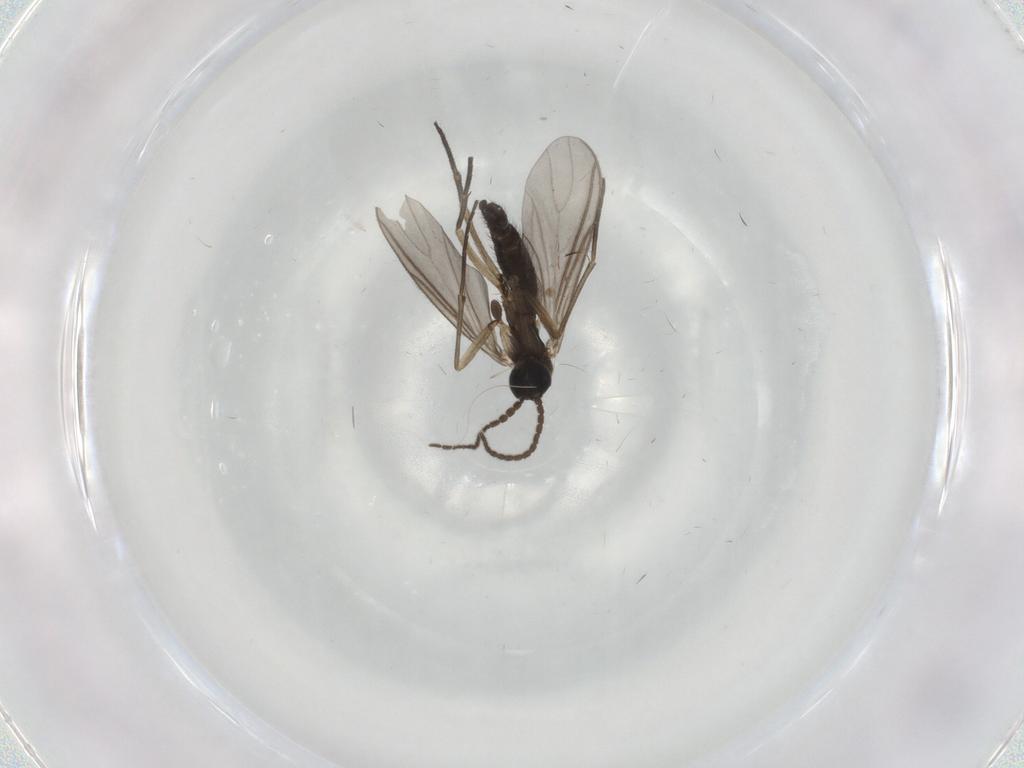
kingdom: Animalia
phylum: Arthropoda
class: Insecta
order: Diptera
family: Sciaridae
